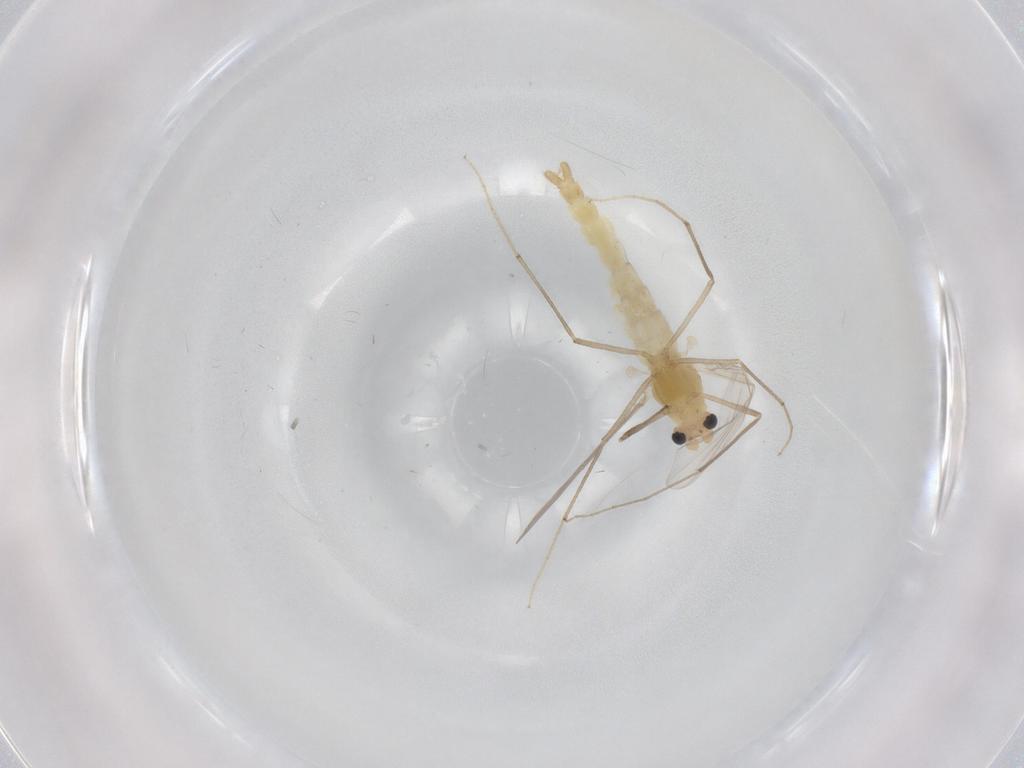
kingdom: Animalia
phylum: Arthropoda
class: Insecta
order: Diptera
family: Chironomidae
